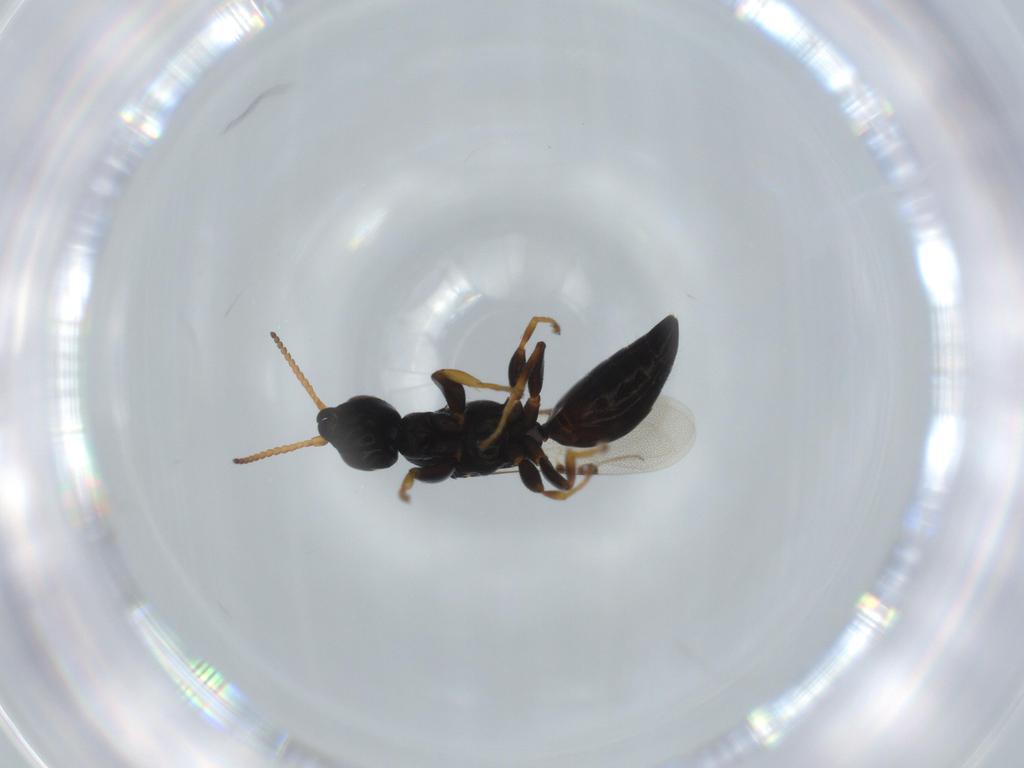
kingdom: Animalia
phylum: Arthropoda
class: Insecta
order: Hymenoptera
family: Bethylidae
